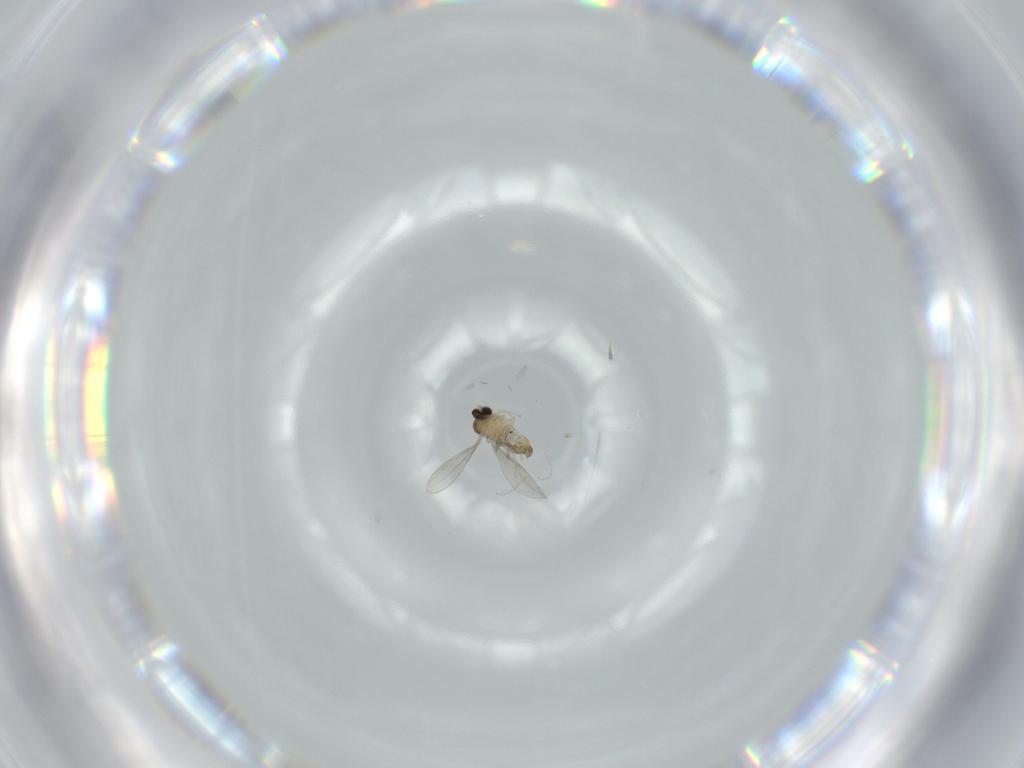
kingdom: Animalia
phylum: Arthropoda
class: Insecta
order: Diptera
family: Cecidomyiidae
